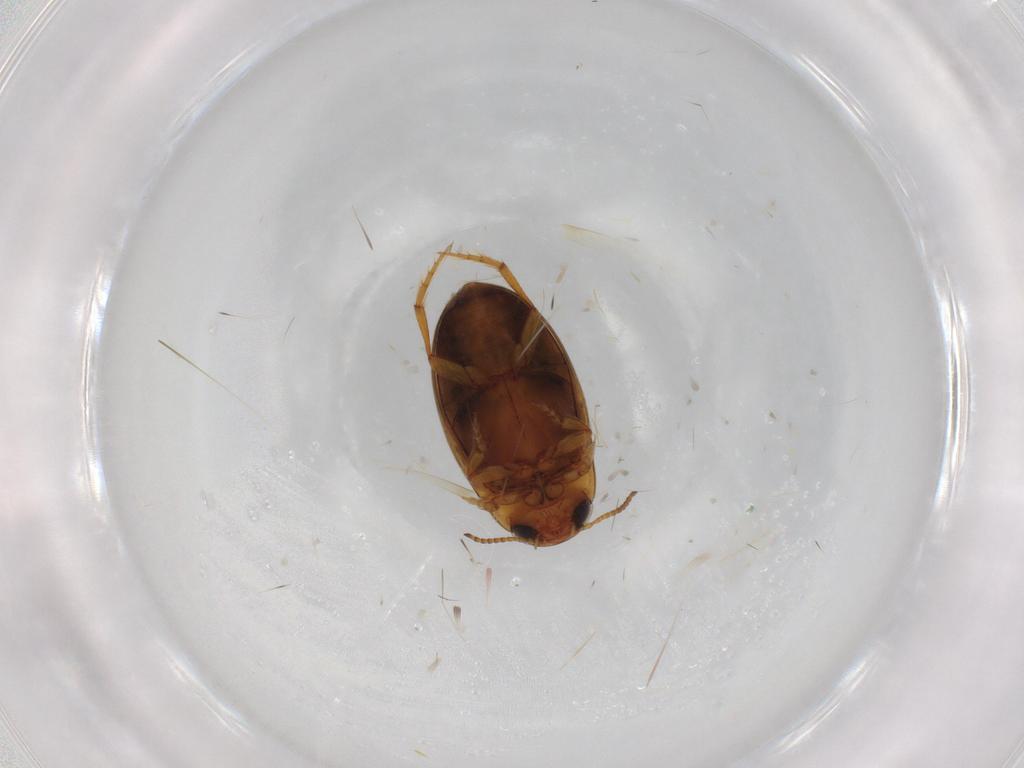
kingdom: Animalia
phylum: Arthropoda
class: Insecta
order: Coleoptera
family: Dytiscidae
